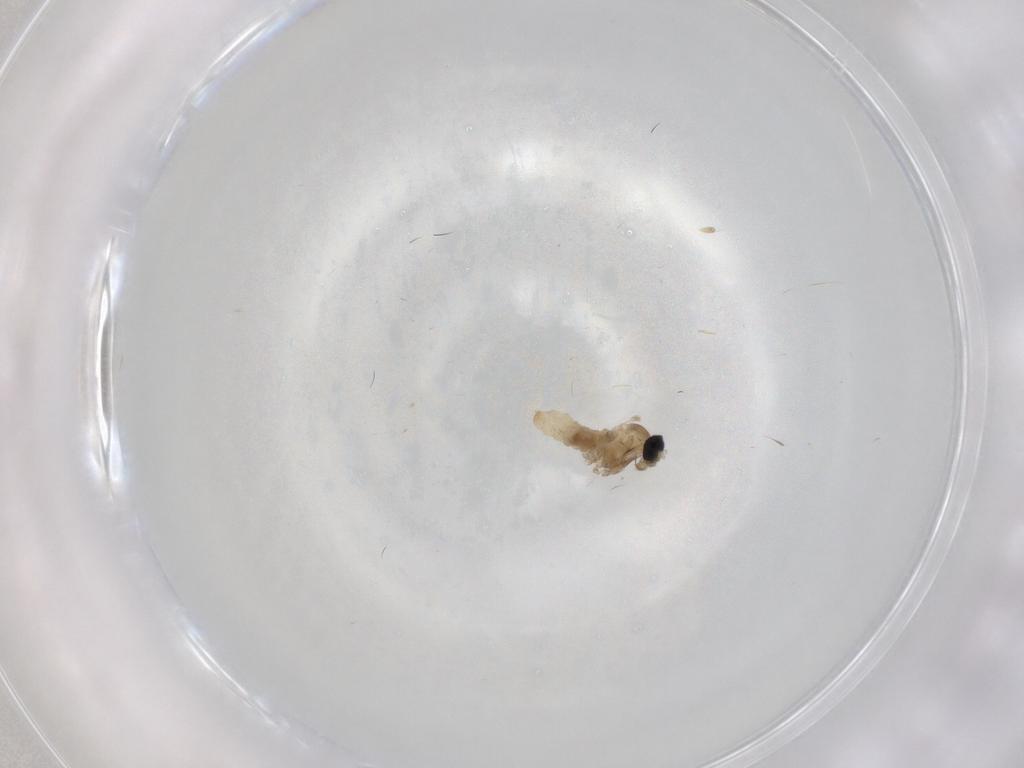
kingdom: Animalia
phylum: Arthropoda
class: Insecta
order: Diptera
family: Cecidomyiidae
